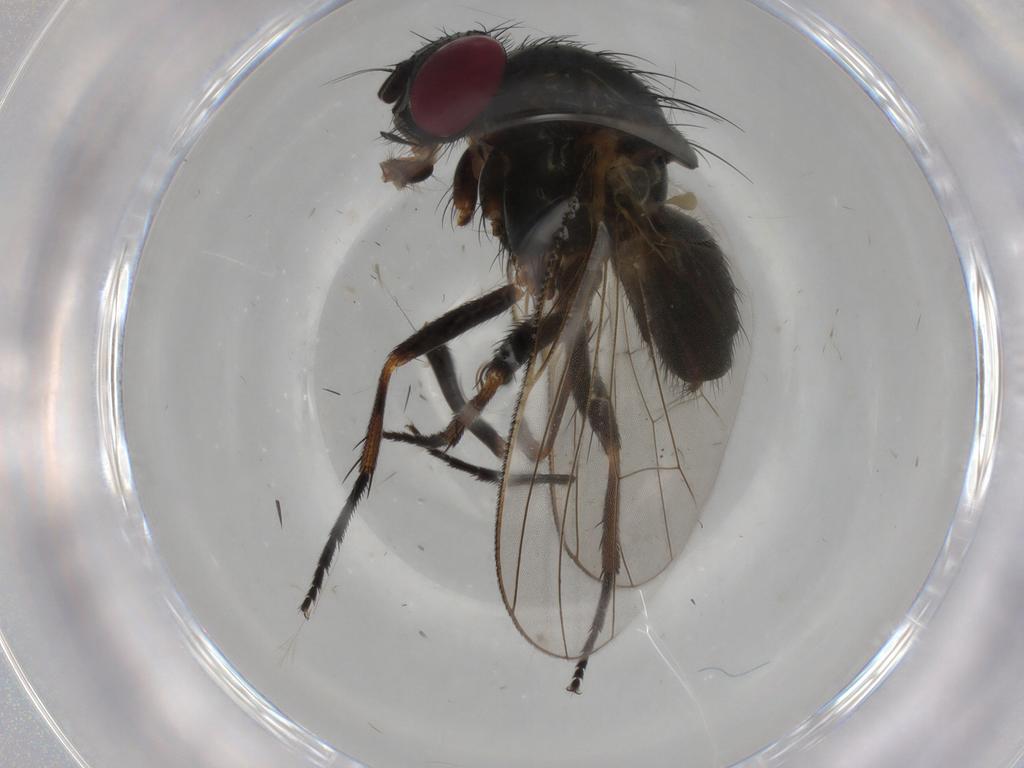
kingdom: Animalia
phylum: Arthropoda
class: Insecta
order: Diptera
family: Fannia
